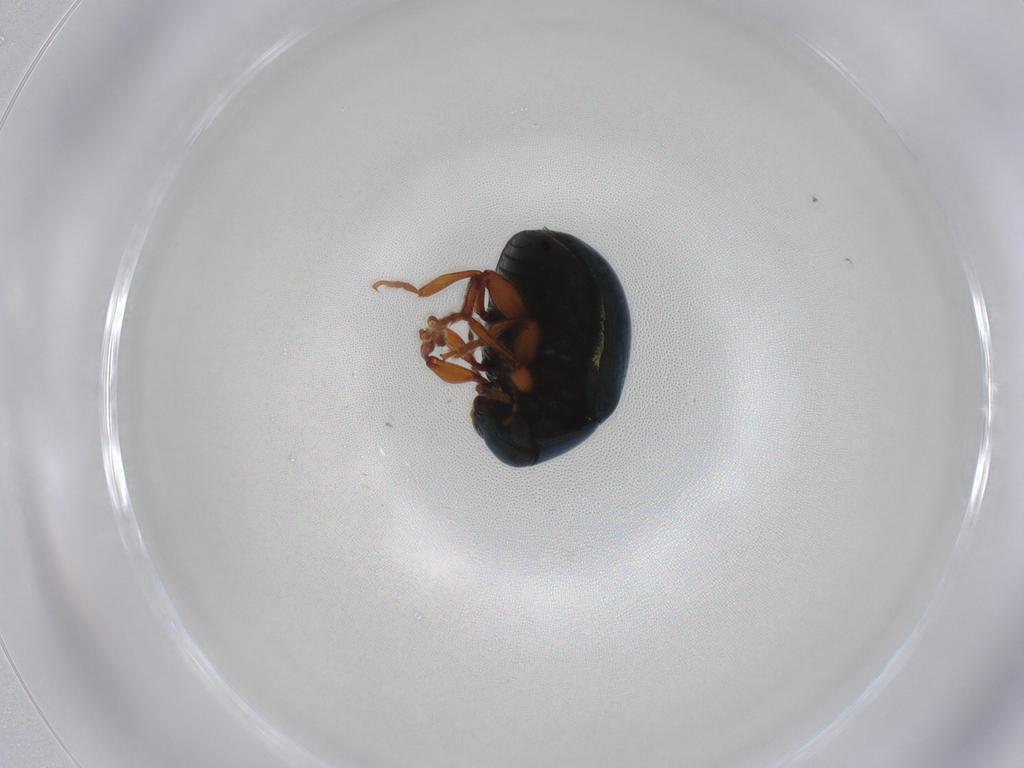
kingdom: Animalia
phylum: Arthropoda
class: Insecta
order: Coleoptera
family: Chrysomelidae
